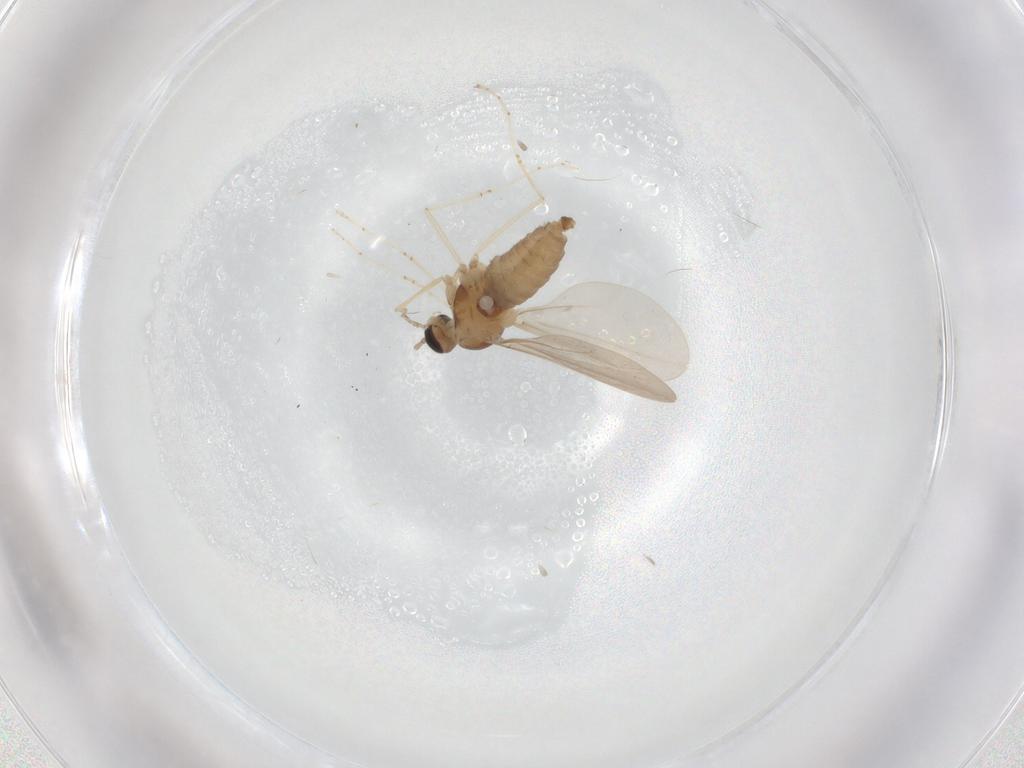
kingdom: Animalia
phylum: Arthropoda
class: Insecta
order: Diptera
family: Cecidomyiidae
